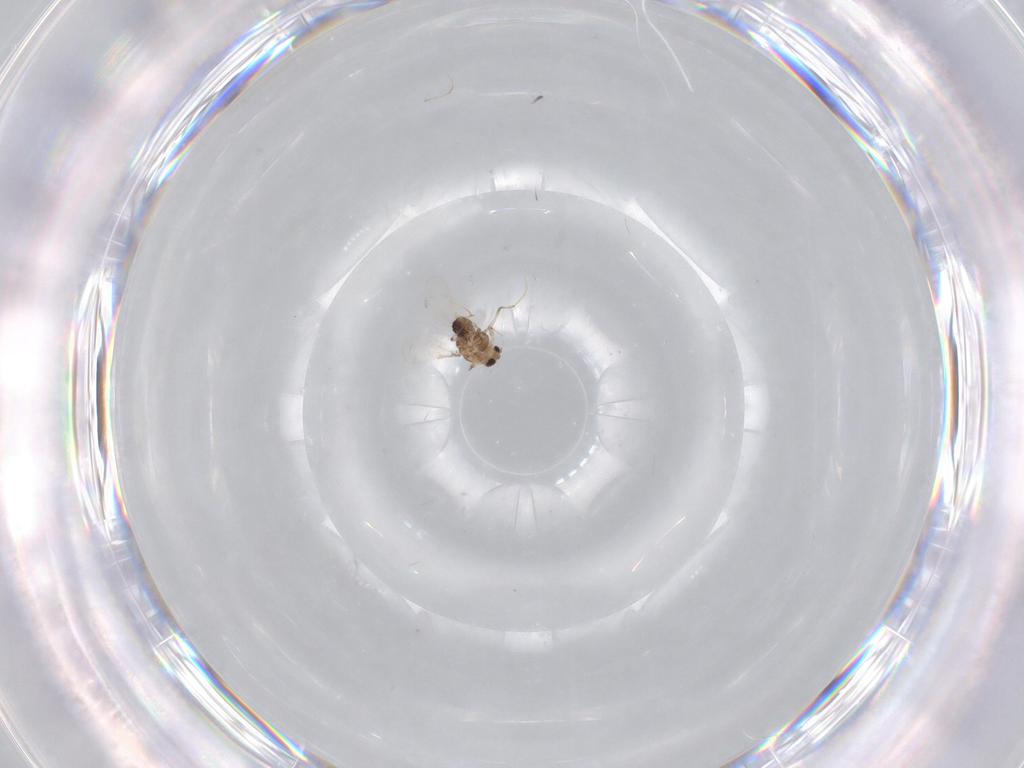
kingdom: Animalia
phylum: Arthropoda
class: Insecta
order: Diptera
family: Chironomidae
